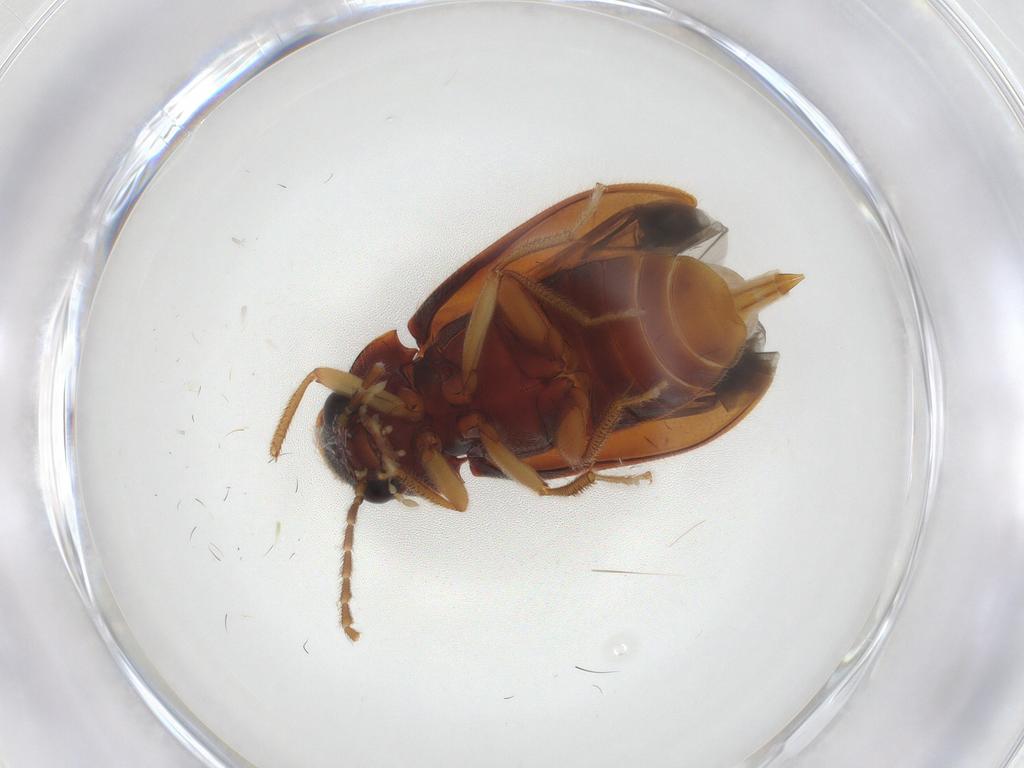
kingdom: Animalia
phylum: Arthropoda
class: Insecta
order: Coleoptera
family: Ptilodactylidae
